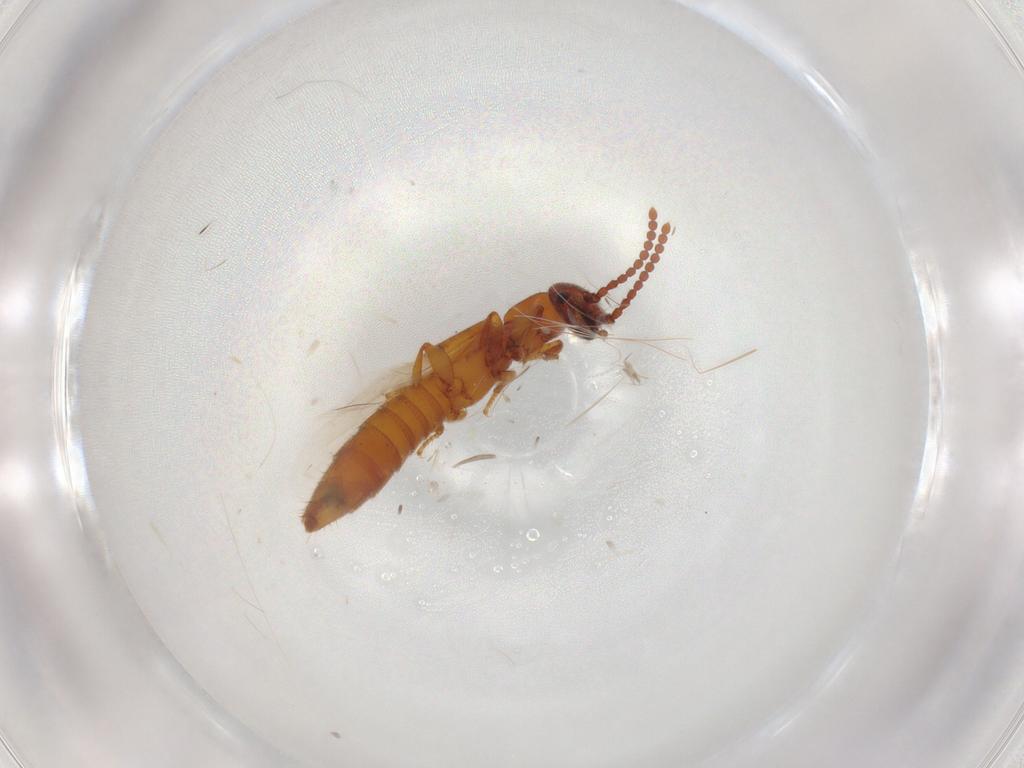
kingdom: Animalia
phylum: Arthropoda
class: Insecta
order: Coleoptera
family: Staphylinidae
